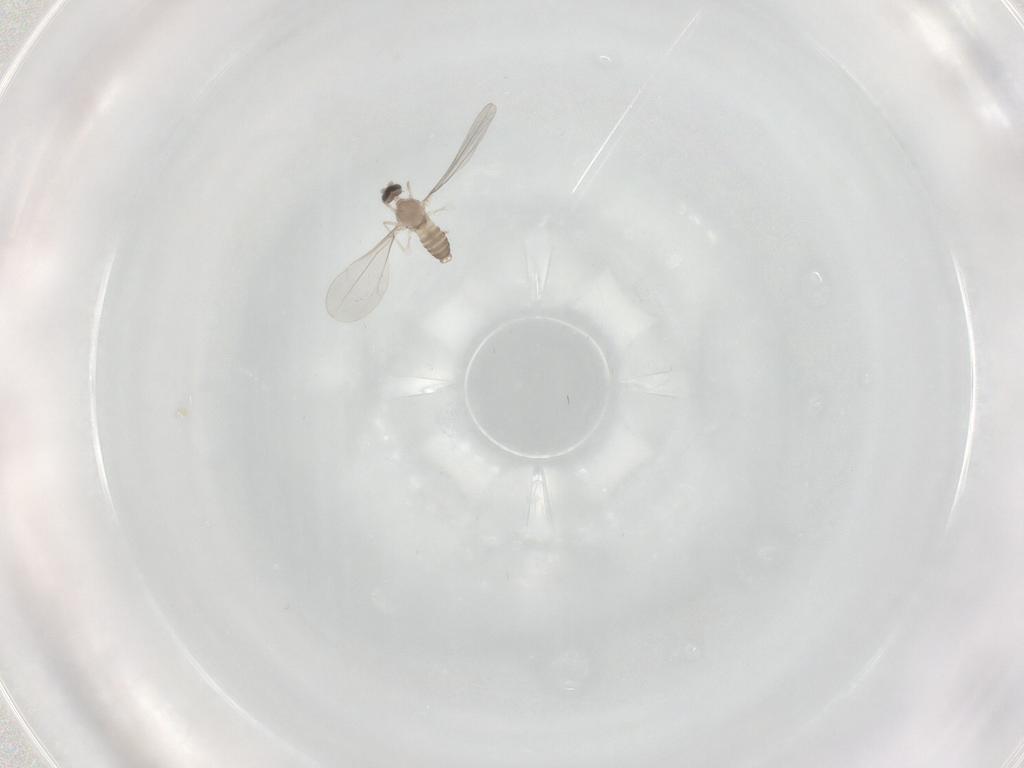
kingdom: Animalia
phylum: Arthropoda
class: Insecta
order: Diptera
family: Cecidomyiidae
